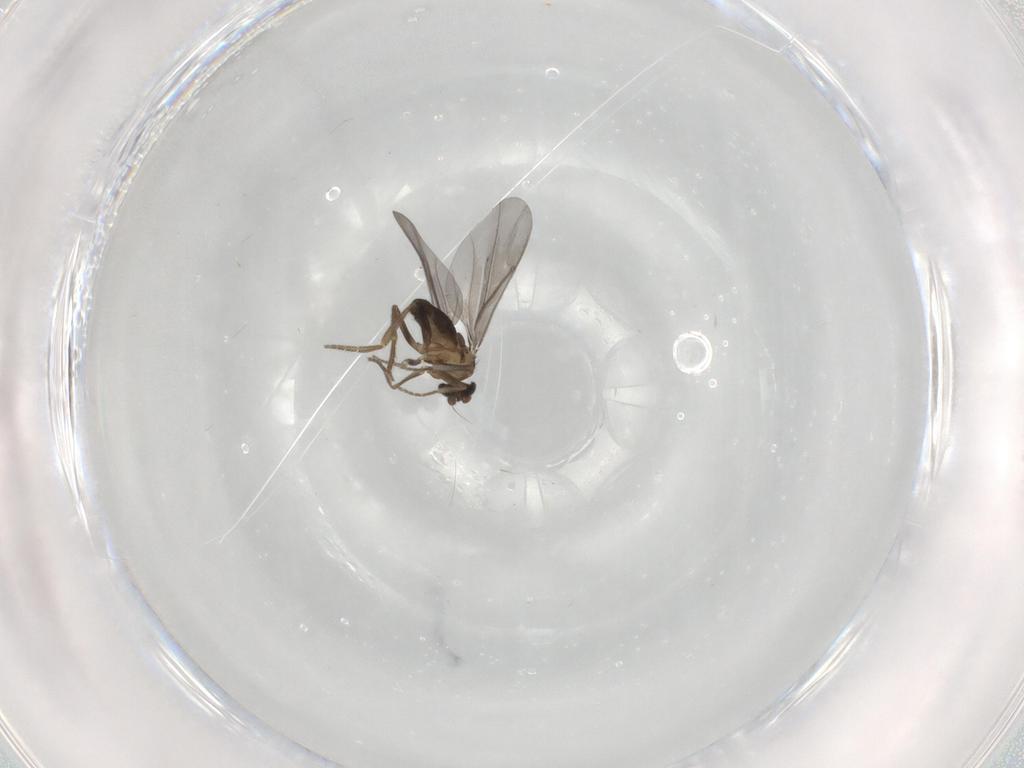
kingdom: Animalia
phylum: Arthropoda
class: Insecta
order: Diptera
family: Phoridae
